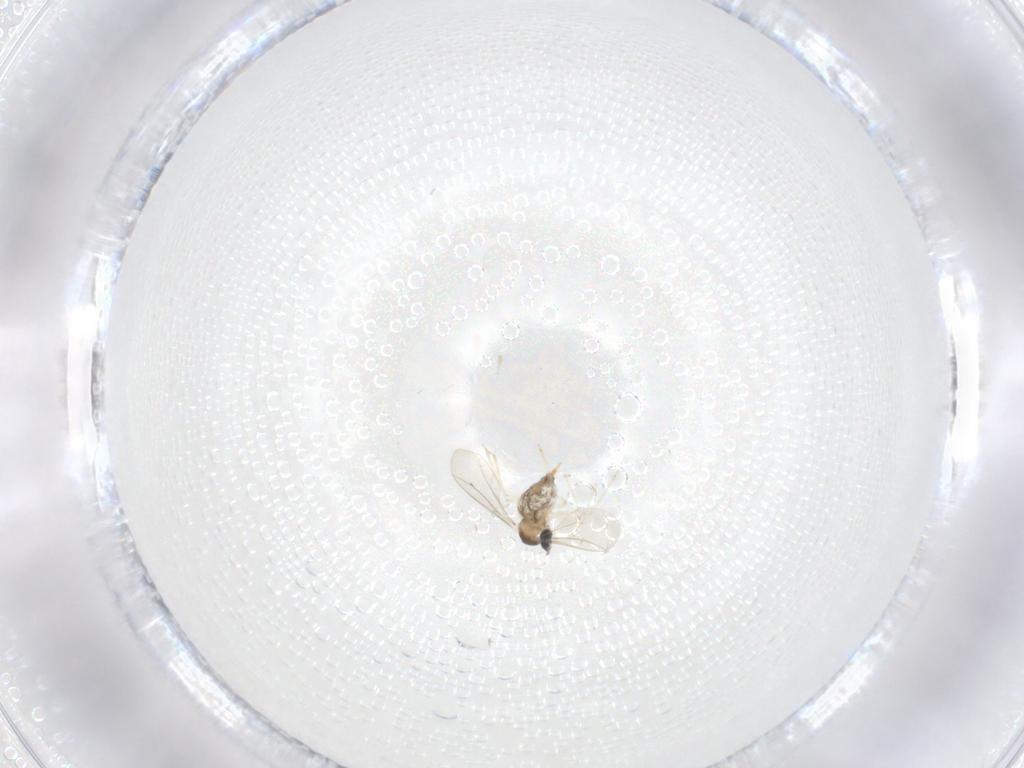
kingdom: Animalia
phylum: Arthropoda
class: Insecta
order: Diptera
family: Cecidomyiidae
